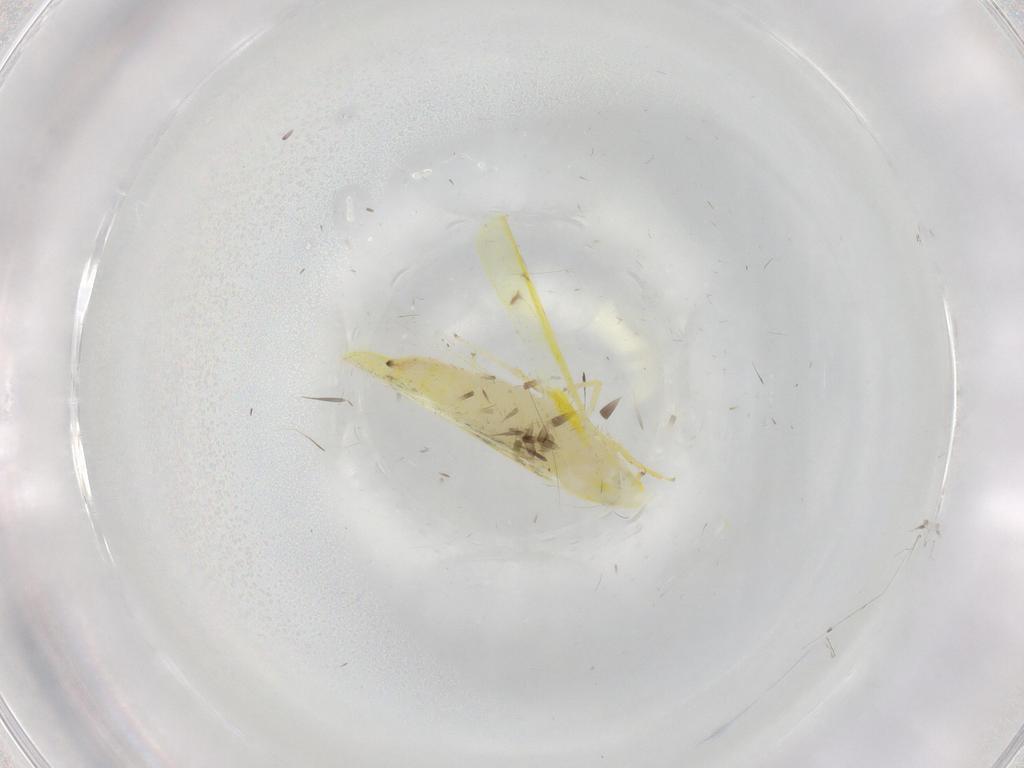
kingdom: Animalia
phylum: Arthropoda
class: Insecta
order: Hemiptera
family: Cicadellidae
